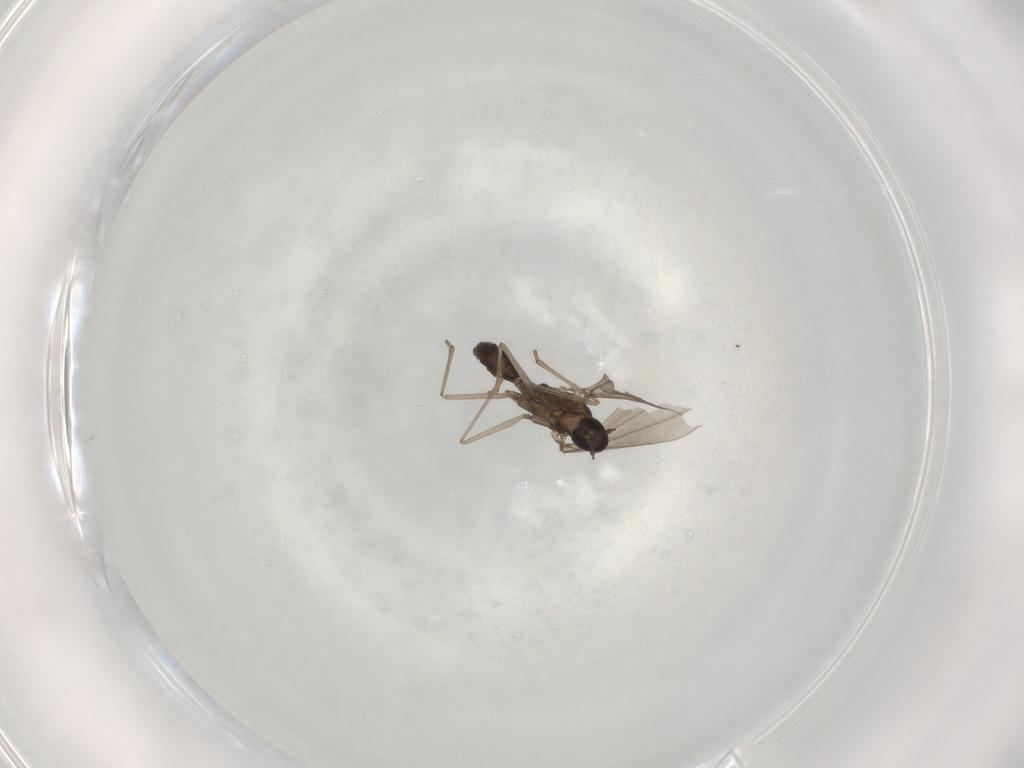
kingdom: Animalia
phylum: Arthropoda
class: Insecta
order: Diptera
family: Cecidomyiidae
